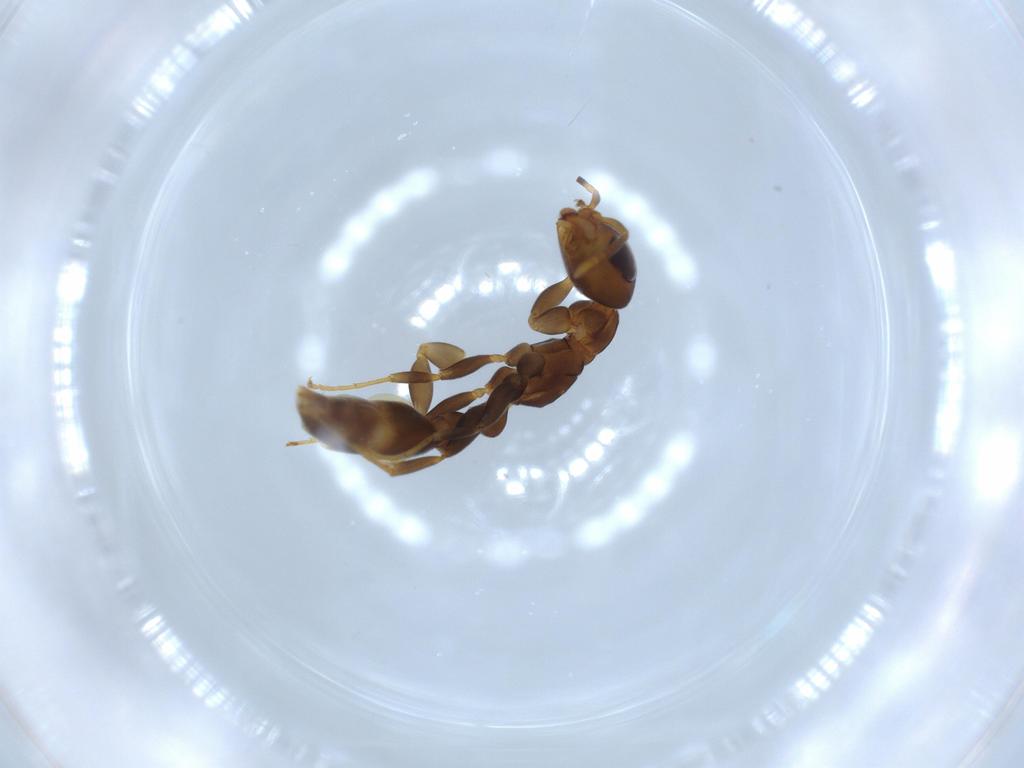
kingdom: Animalia
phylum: Arthropoda
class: Insecta
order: Hymenoptera
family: Formicidae
